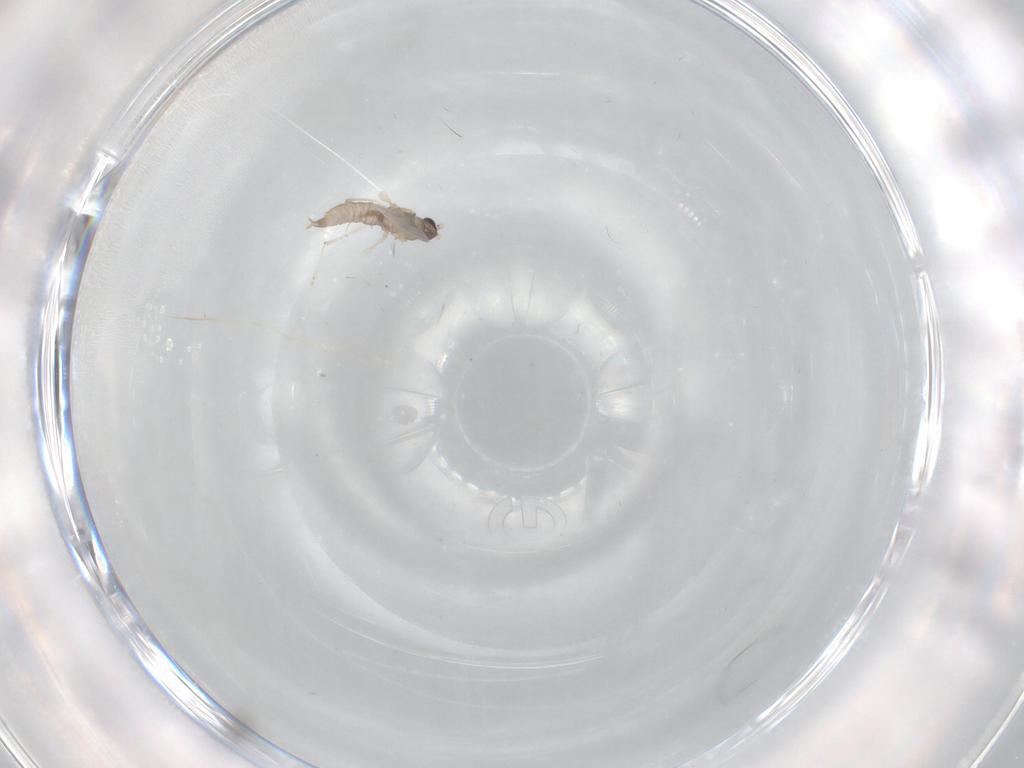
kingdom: Animalia
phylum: Arthropoda
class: Insecta
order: Diptera
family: Cecidomyiidae
